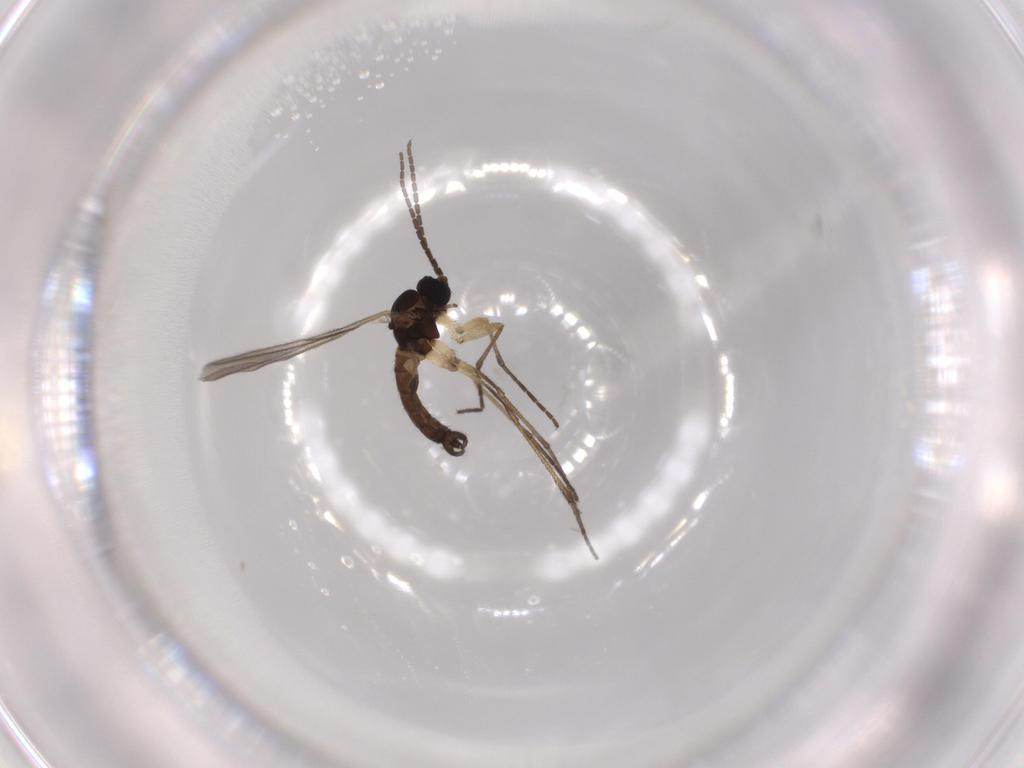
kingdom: Animalia
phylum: Arthropoda
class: Insecta
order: Diptera
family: Sciaridae
